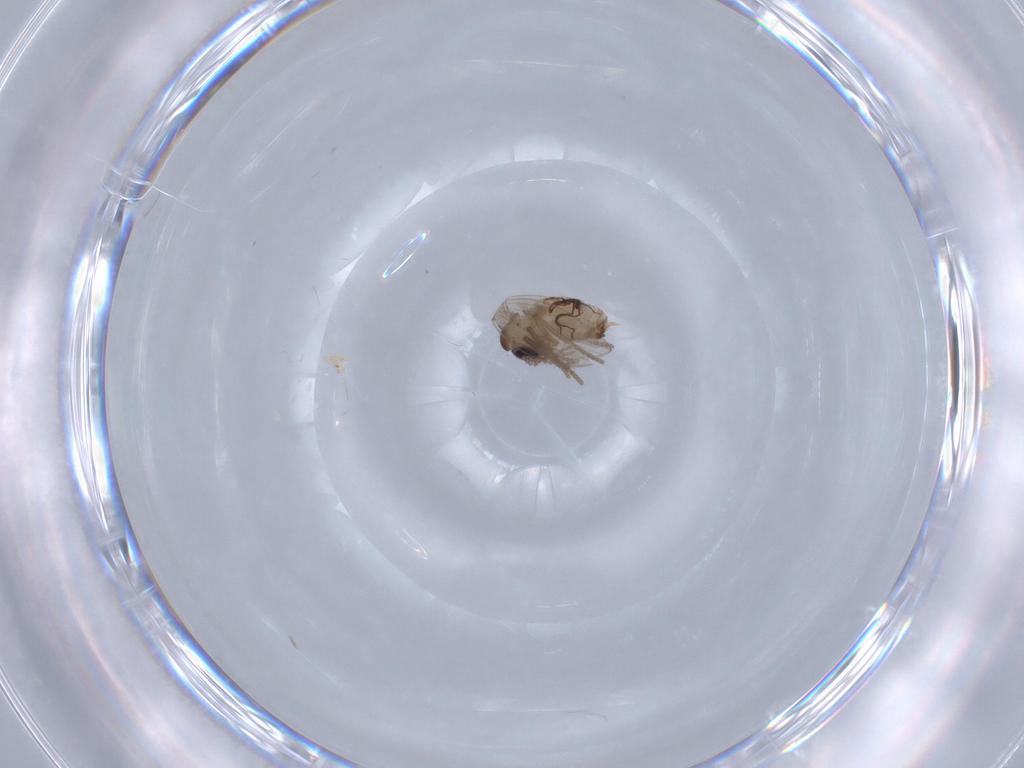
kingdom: Animalia
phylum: Arthropoda
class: Insecta
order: Diptera
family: Psychodidae
